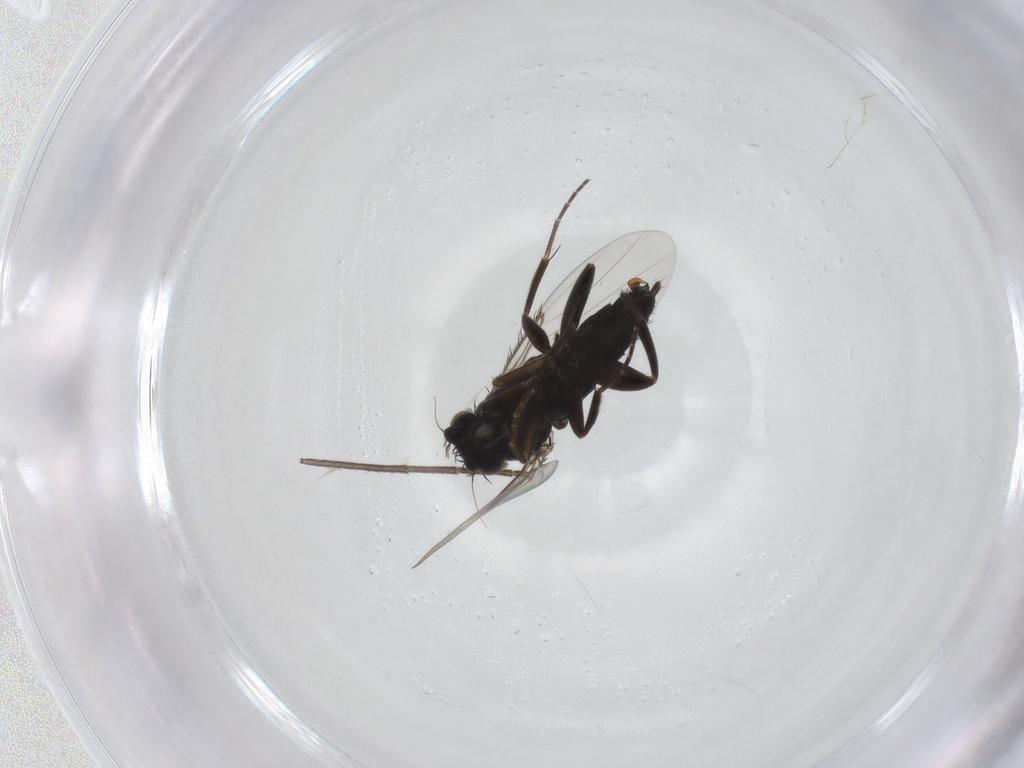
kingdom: Animalia
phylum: Arthropoda
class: Insecta
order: Diptera
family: Phoridae
